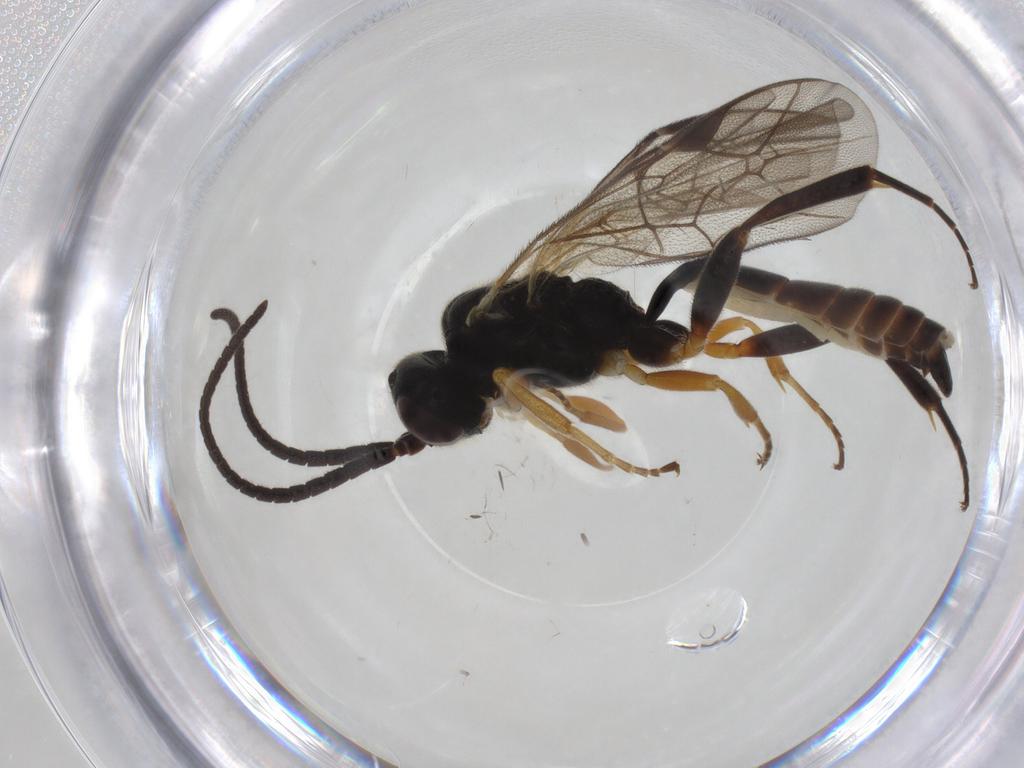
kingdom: Animalia
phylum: Arthropoda
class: Insecta
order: Hymenoptera
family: Ichneumonidae
